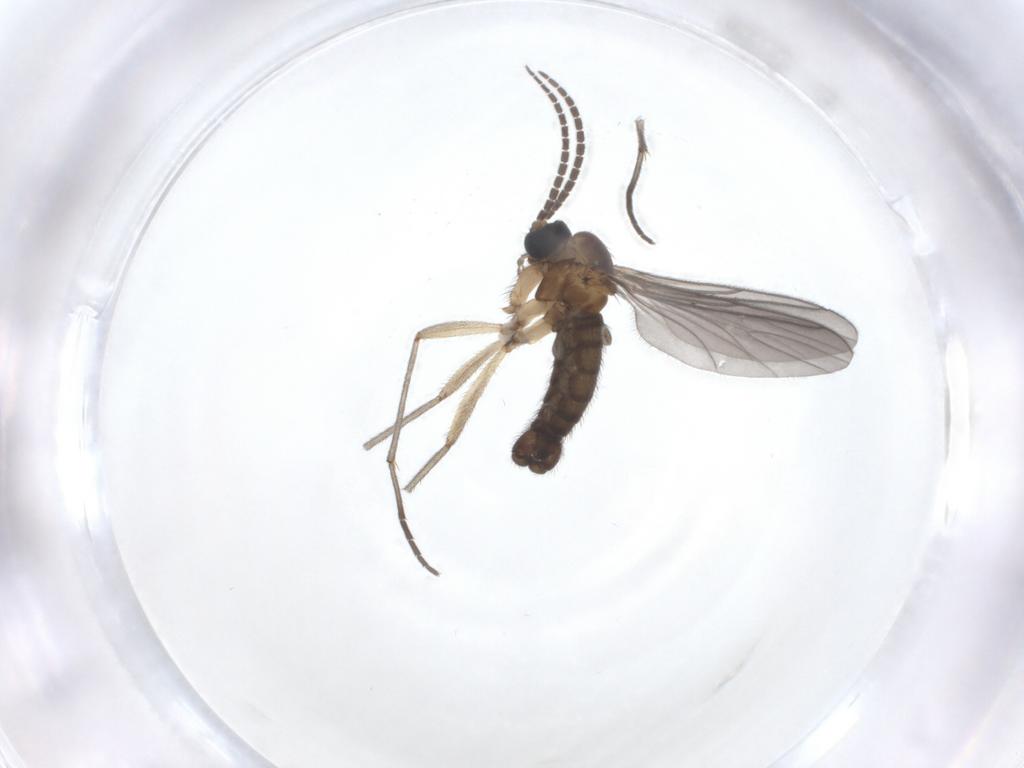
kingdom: Animalia
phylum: Arthropoda
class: Insecta
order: Diptera
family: Sciaridae
